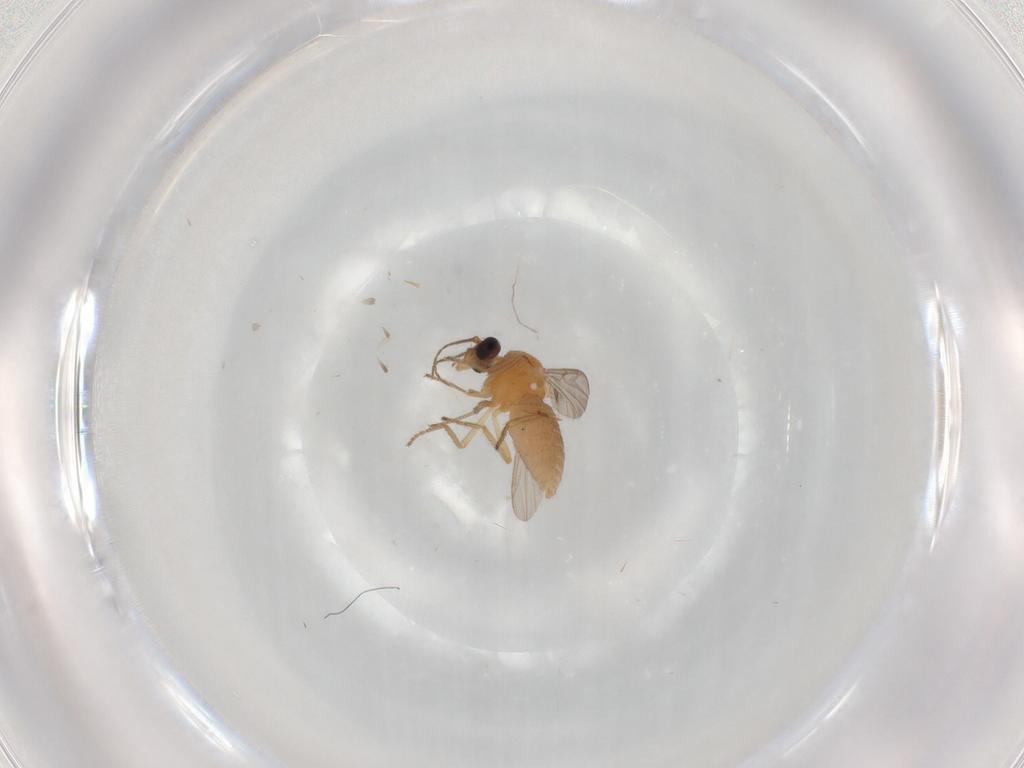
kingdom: Animalia
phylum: Arthropoda
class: Insecta
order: Diptera
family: Ceratopogonidae
